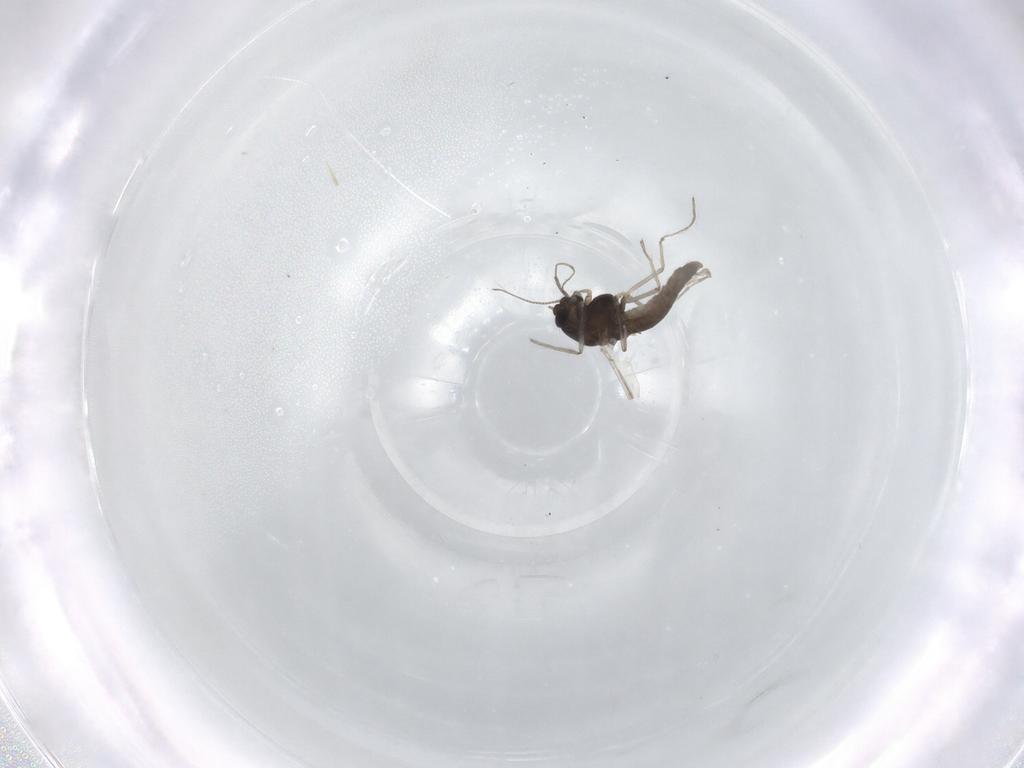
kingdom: Animalia
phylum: Arthropoda
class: Insecta
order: Diptera
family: Chironomidae
